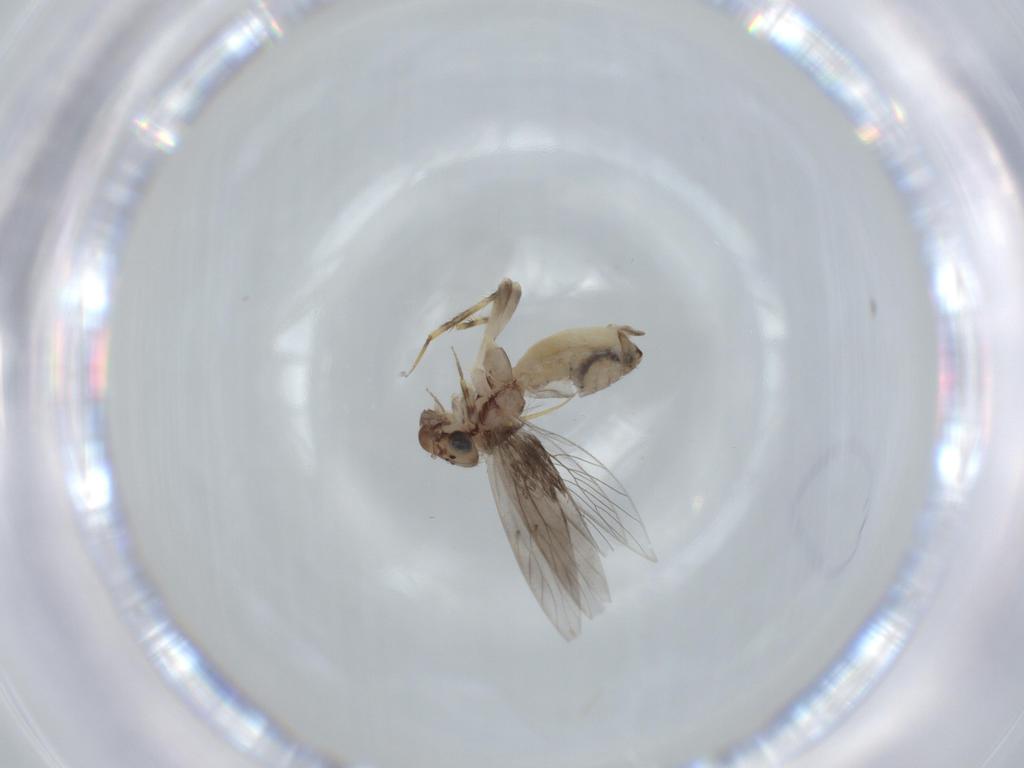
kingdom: Animalia
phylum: Arthropoda
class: Insecta
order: Psocodea
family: Lepidopsocidae
